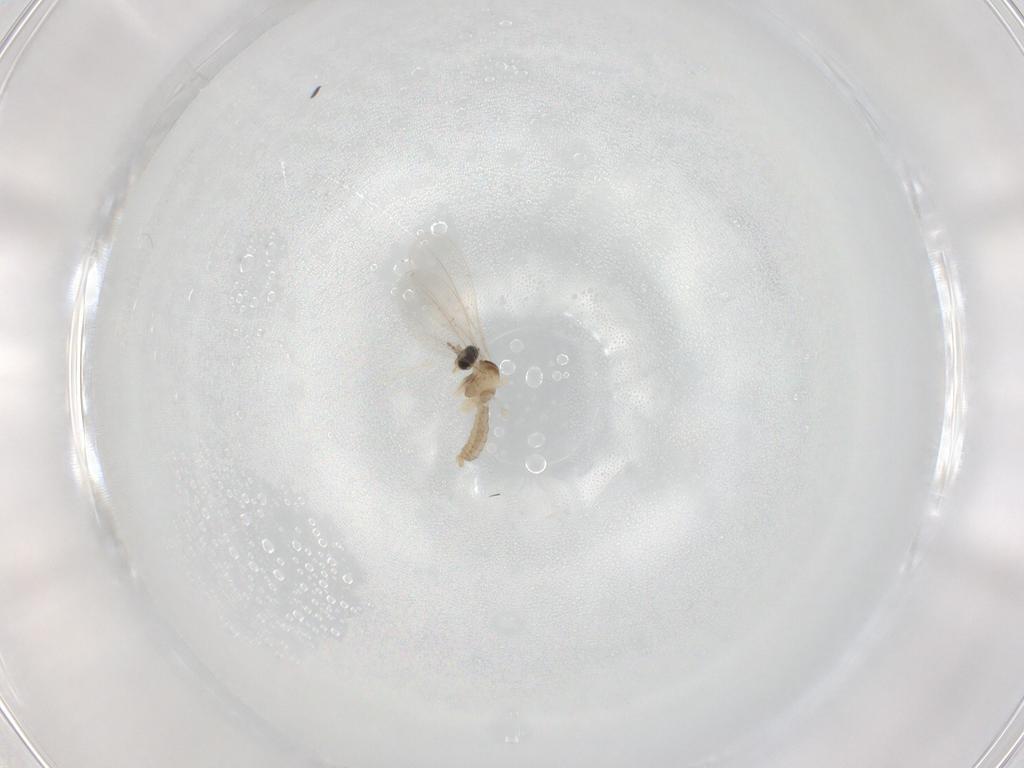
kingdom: Animalia
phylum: Arthropoda
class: Insecta
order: Diptera
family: Cecidomyiidae
